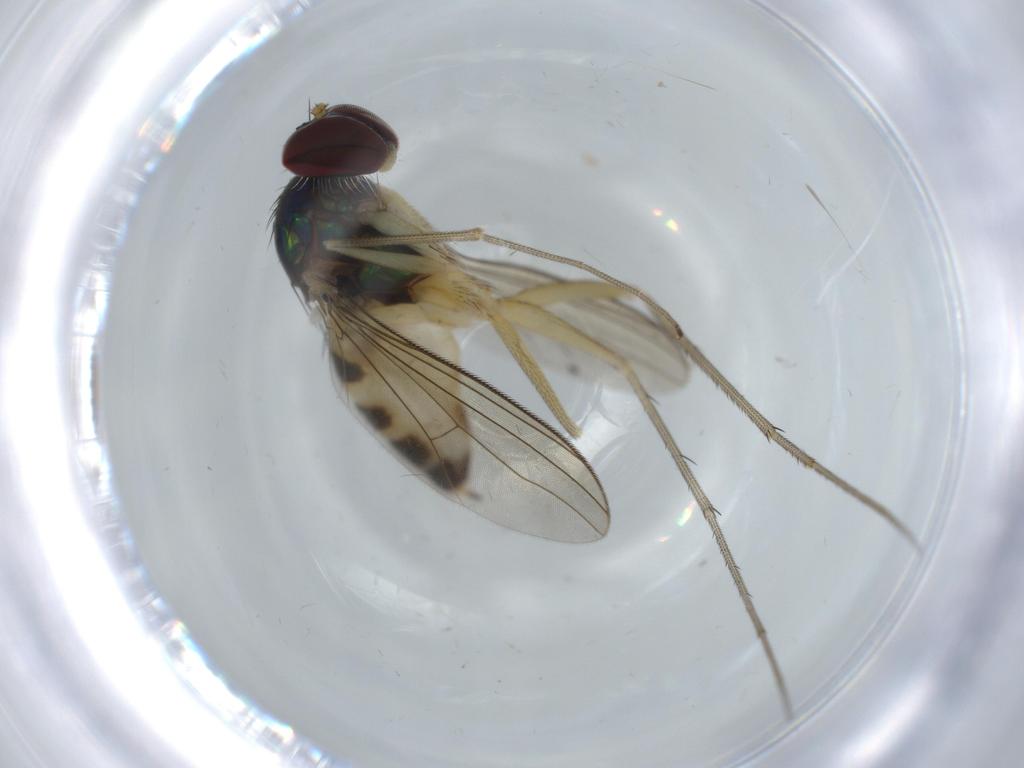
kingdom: Animalia
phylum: Arthropoda
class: Insecta
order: Diptera
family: Dolichopodidae
